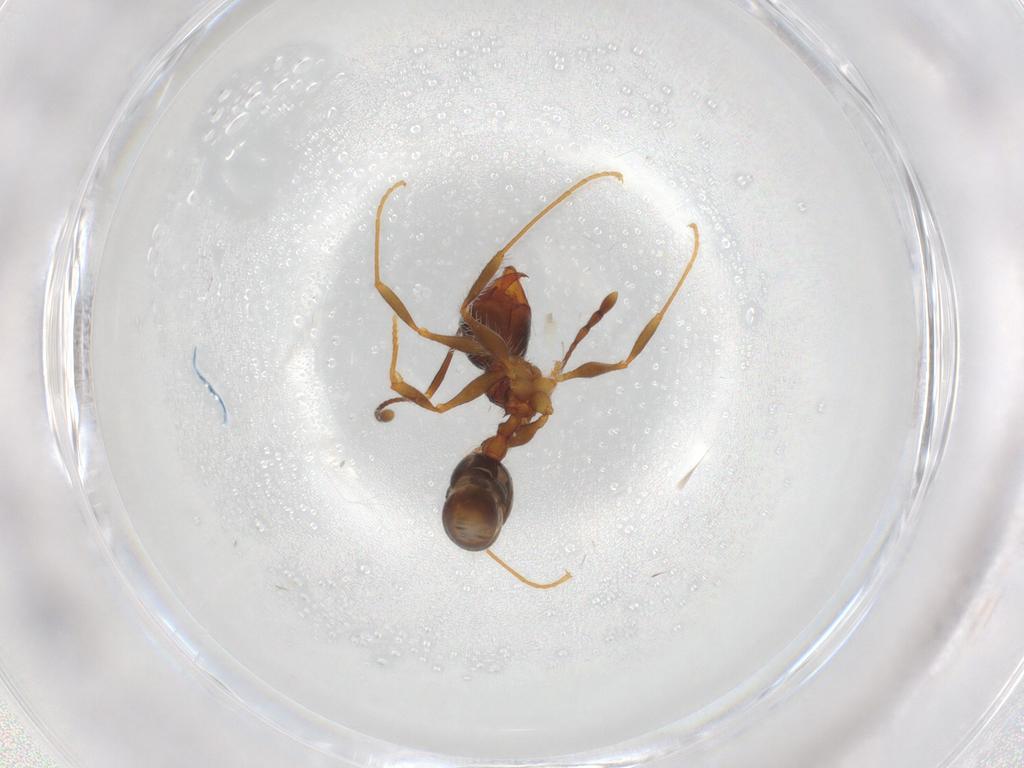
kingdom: Animalia
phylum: Arthropoda
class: Insecta
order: Hymenoptera
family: Formicidae
